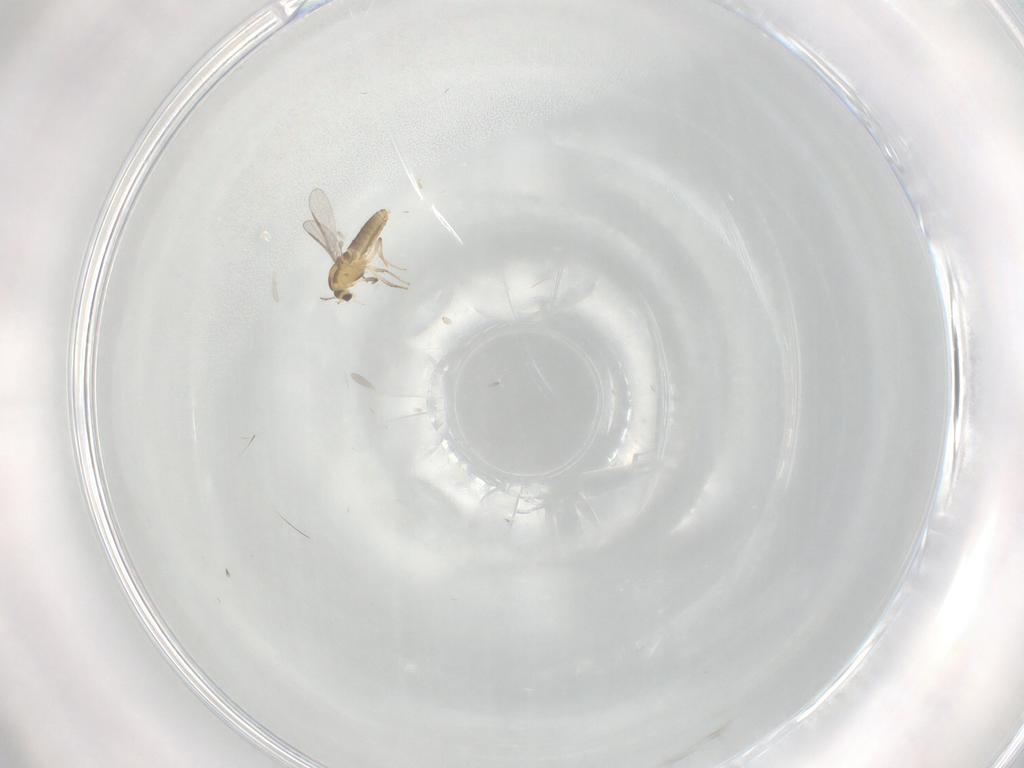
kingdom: Animalia
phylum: Arthropoda
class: Insecta
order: Diptera
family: Chironomidae
